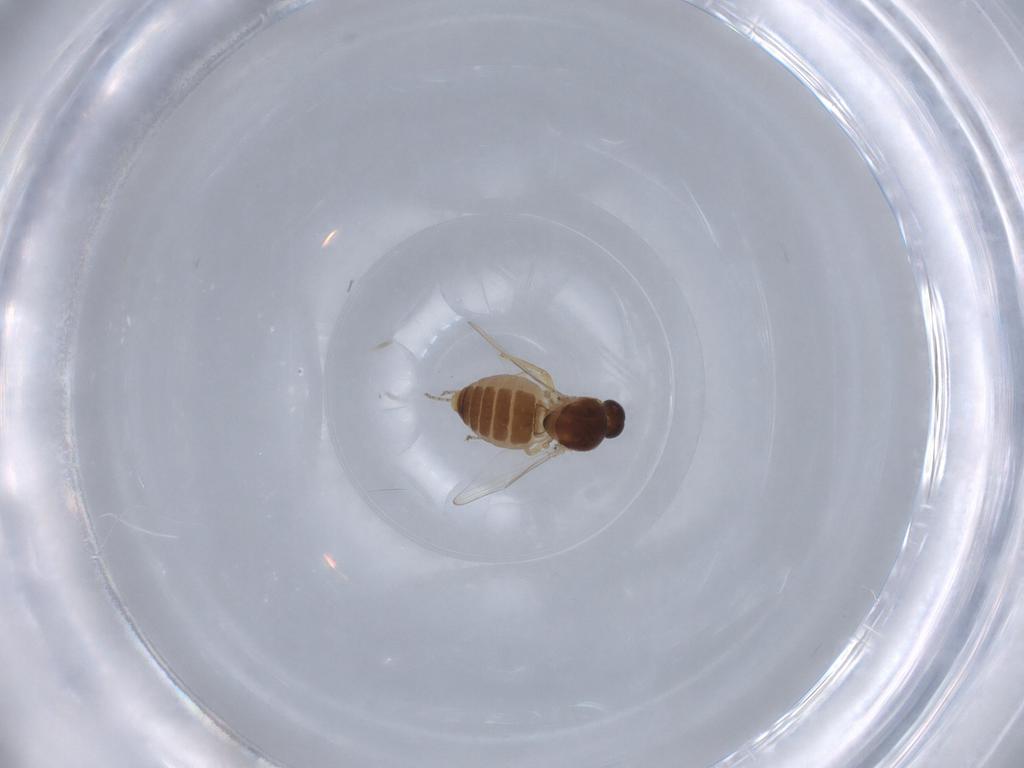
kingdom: Animalia
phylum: Arthropoda
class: Insecta
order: Diptera
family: Ceratopogonidae
